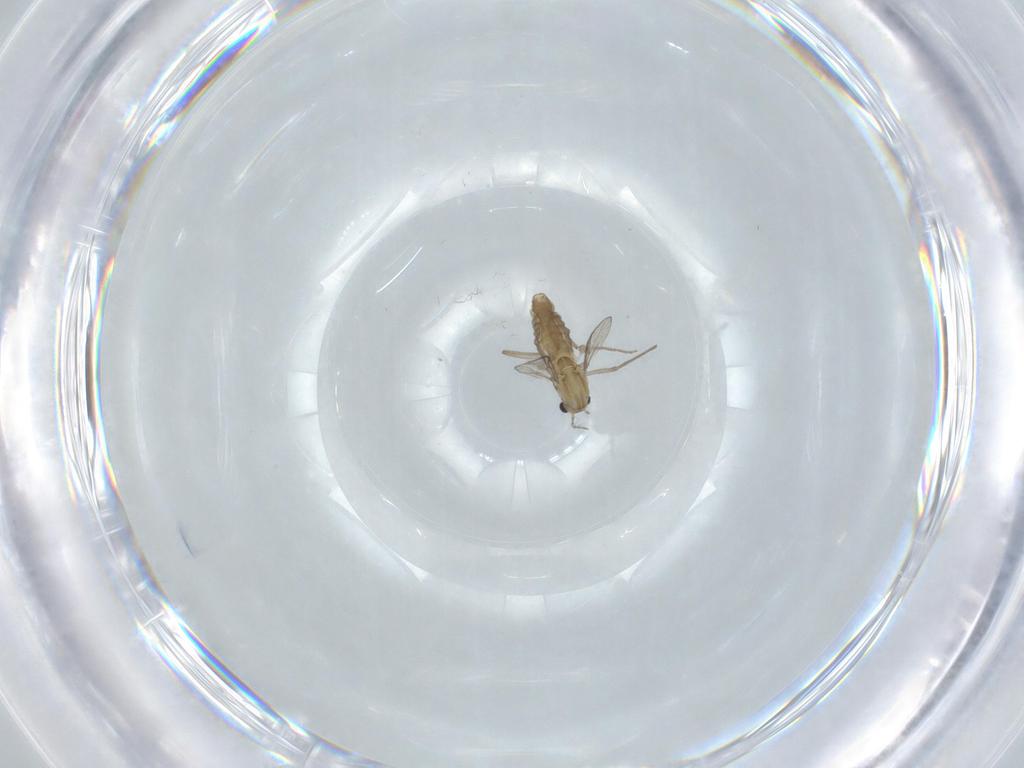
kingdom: Animalia
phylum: Arthropoda
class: Insecta
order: Diptera
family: Chironomidae
